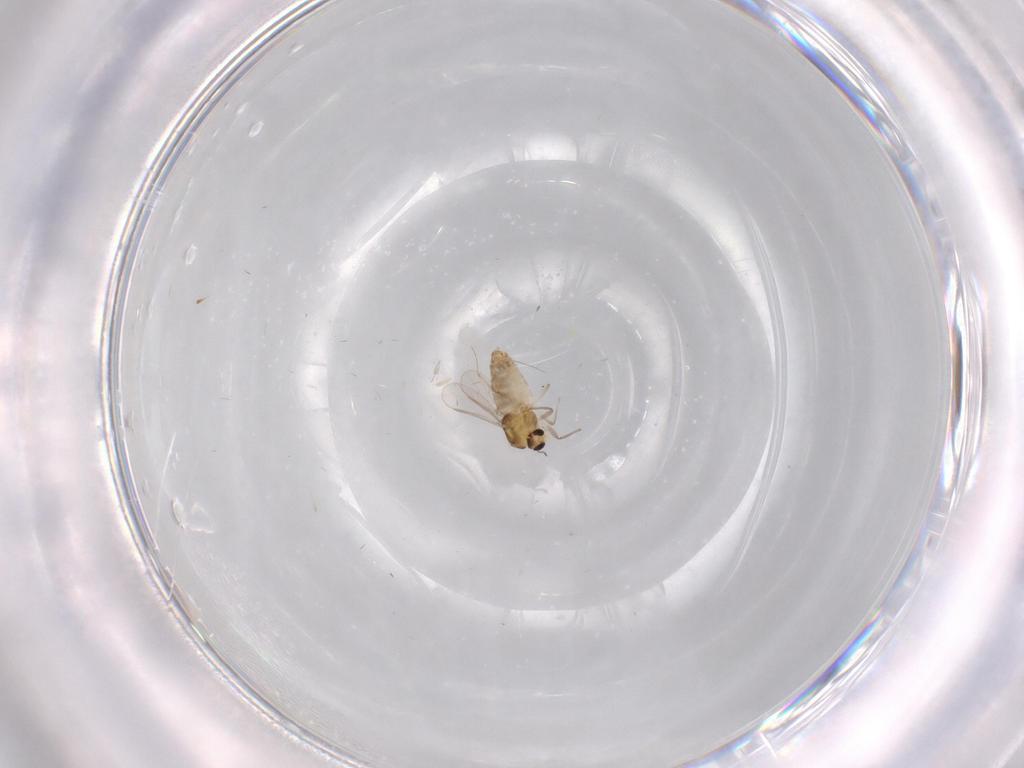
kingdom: Animalia
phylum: Arthropoda
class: Insecta
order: Diptera
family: Chironomidae
